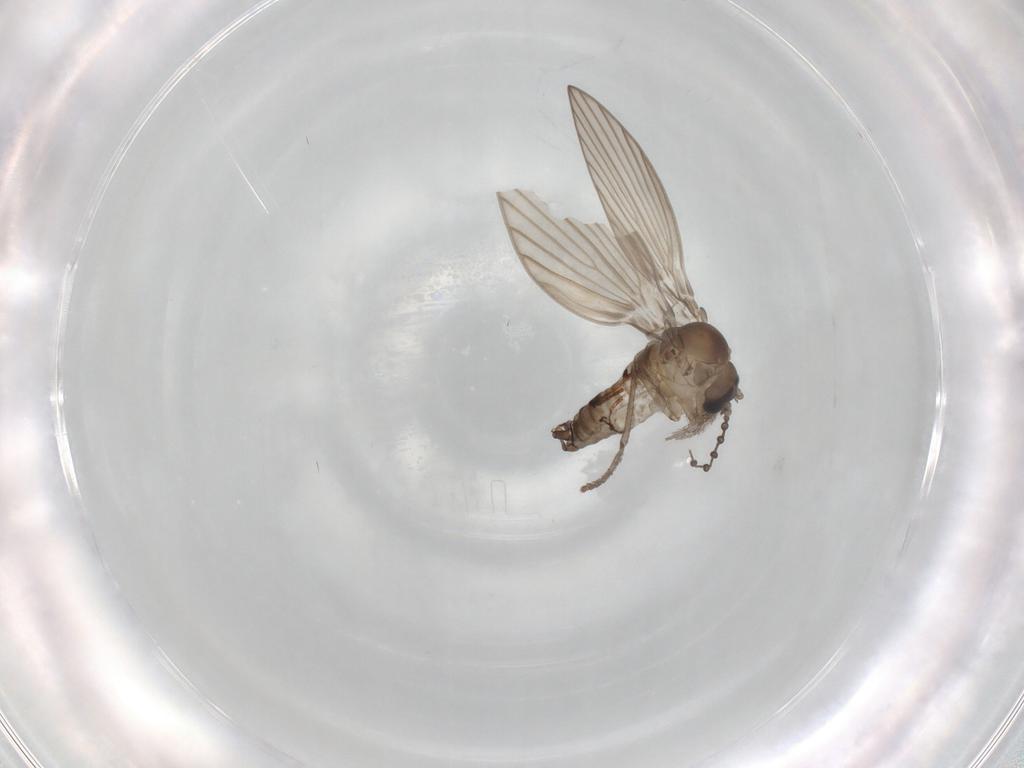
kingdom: Animalia
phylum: Arthropoda
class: Insecta
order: Diptera
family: Psychodidae
